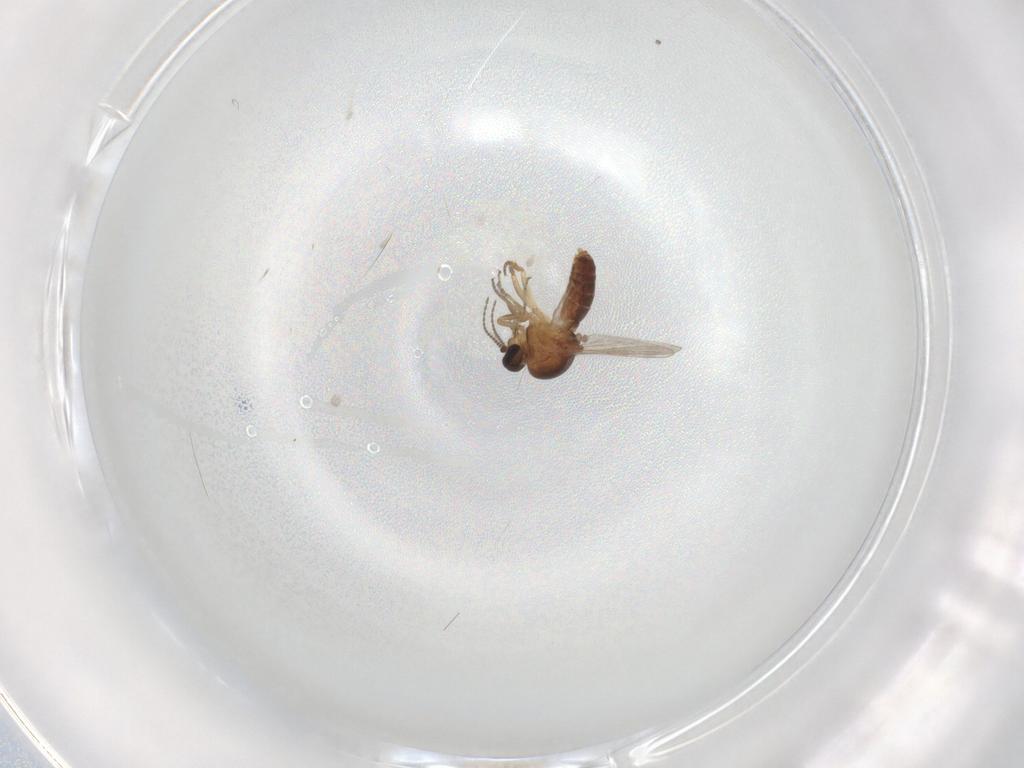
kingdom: Animalia
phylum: Arthropoda
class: Insecta
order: Diptera
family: Ceratopogonidae
